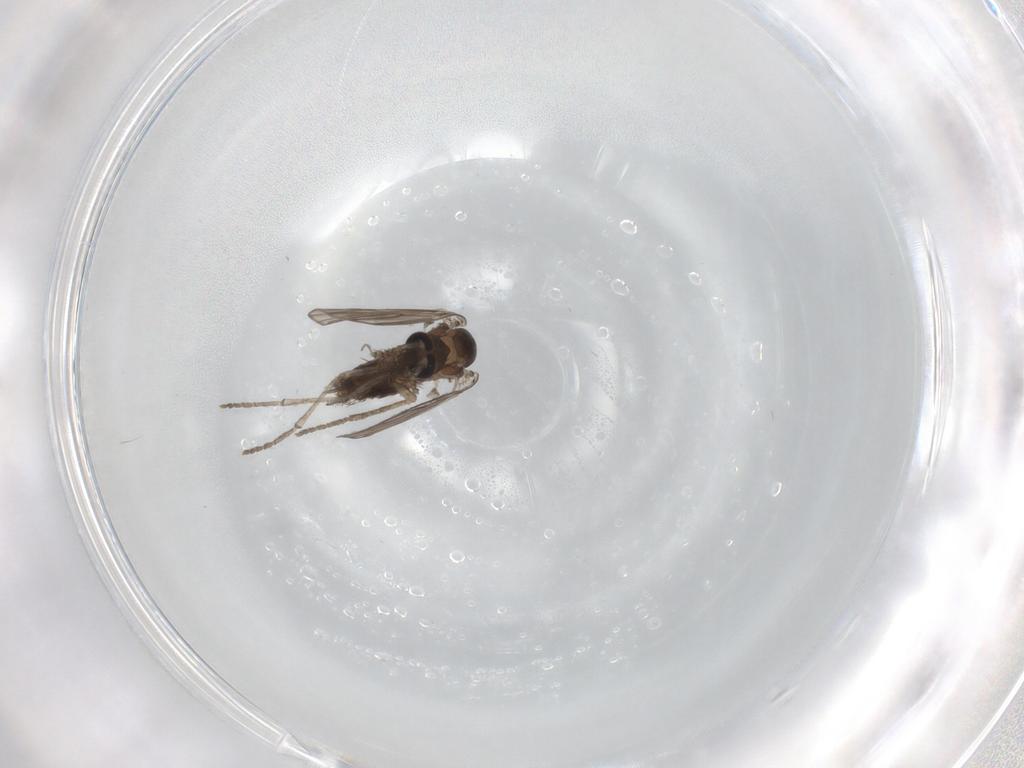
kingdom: Animalia
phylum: Arthropoda
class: Insecta
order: Diptera
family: Psychodidae
